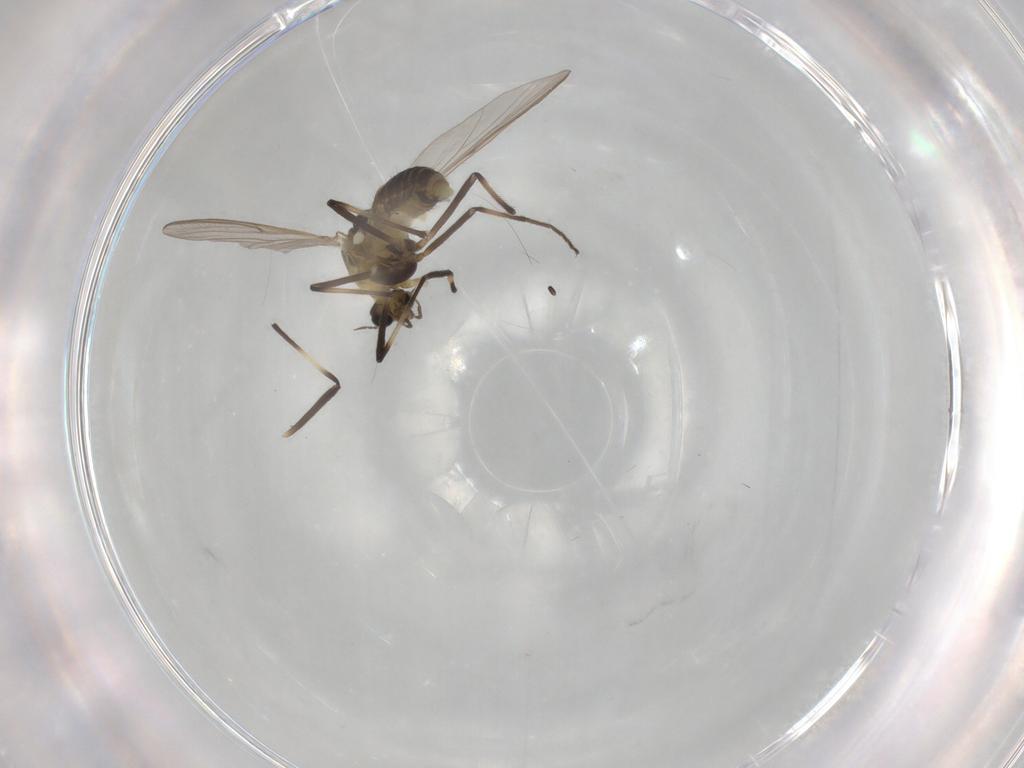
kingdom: Animalia
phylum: Arthropoda
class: Insecta
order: Diptera
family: Chironomidae
